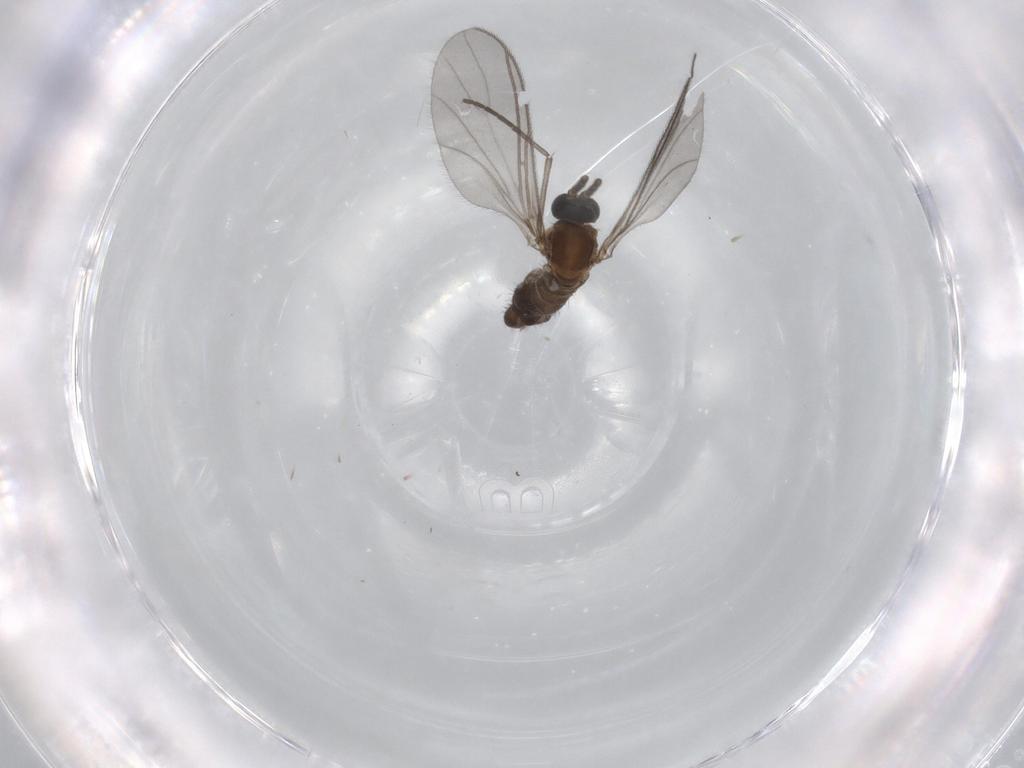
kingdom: Animalia
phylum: Arthropoda
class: Insecta
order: Diptera
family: Sciaridae
